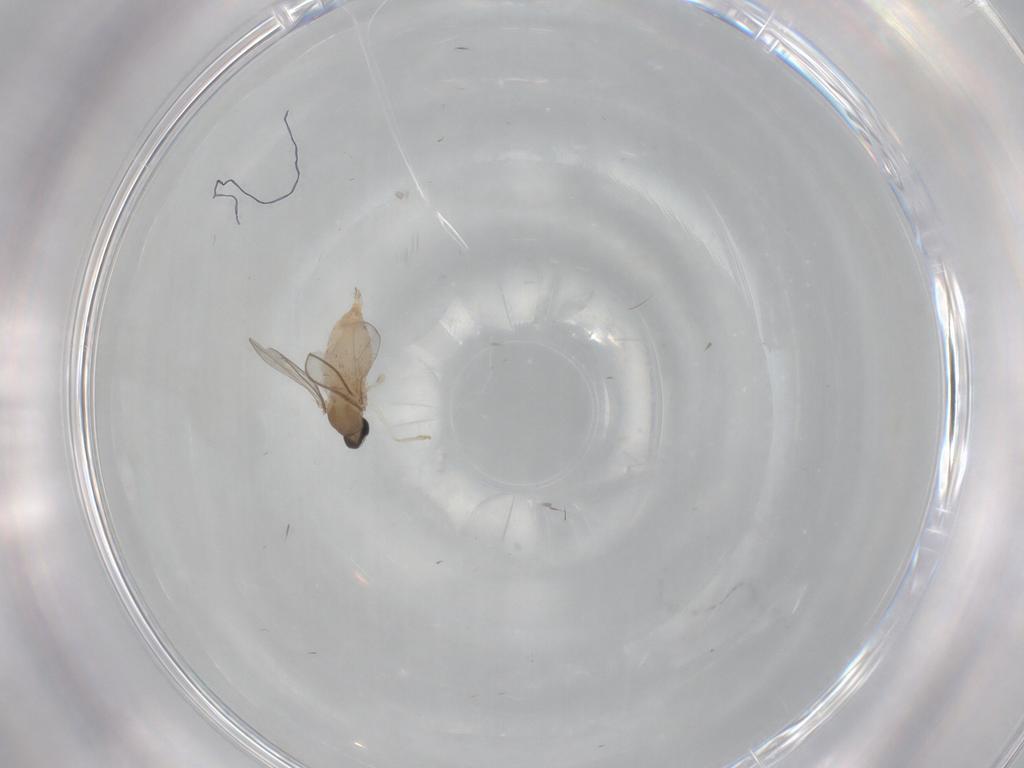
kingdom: Animalia
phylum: Arthropoda
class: Insecta
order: Diptera
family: Cecidomyiidae
